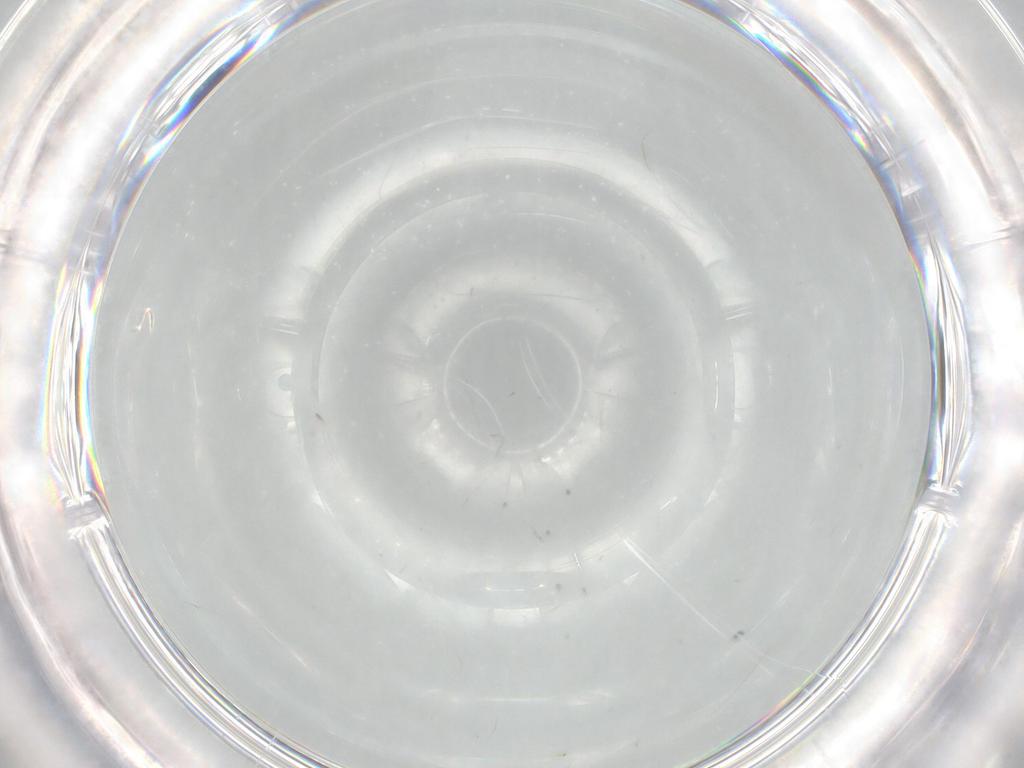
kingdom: Animalia
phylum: Arthropoda
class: Insecta
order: Hymenoptera
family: Encyrtidae
